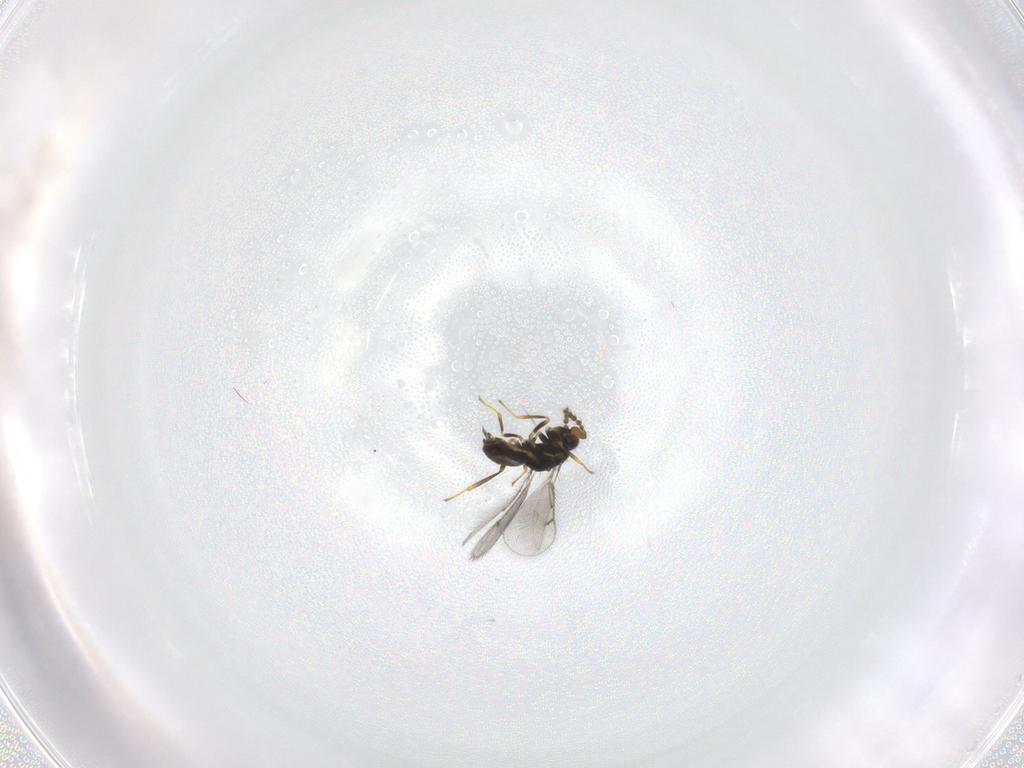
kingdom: Animalia
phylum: Arthropoda
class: Insecta
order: Hymenoptera
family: Eulophidae
